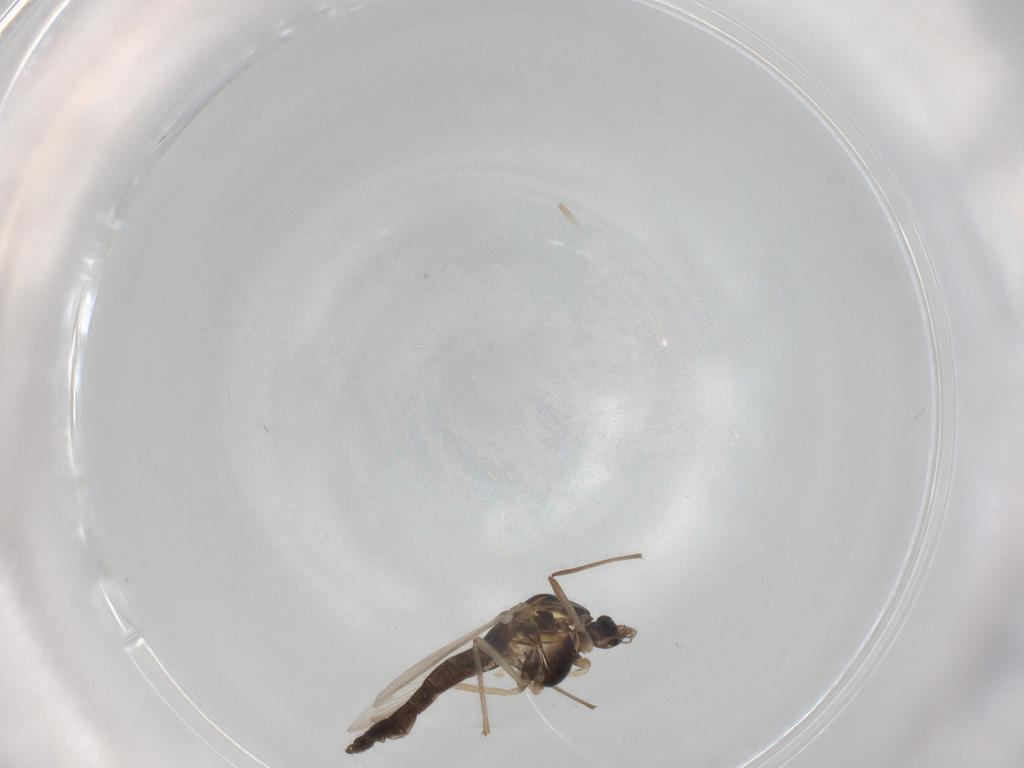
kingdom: Animalia
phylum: Arthropoda
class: Insecta
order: Diptera
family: Chironomidae
